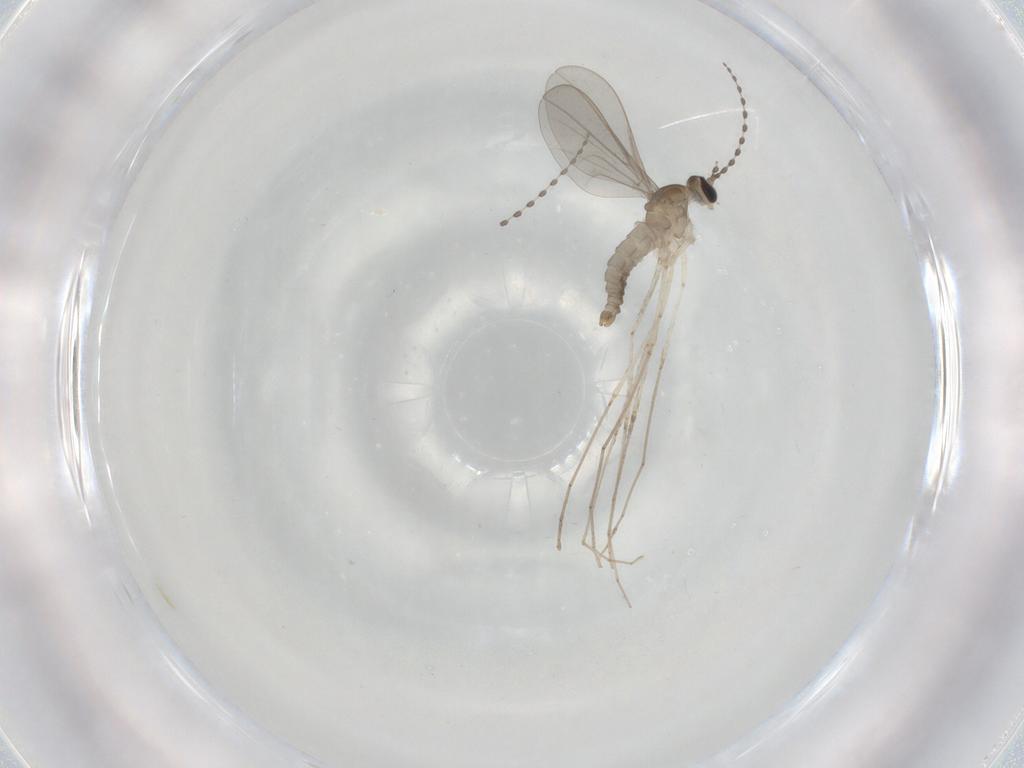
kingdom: Animalia
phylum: Arthropoda
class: Insecta
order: Diptera
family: Cecidomyiidae
